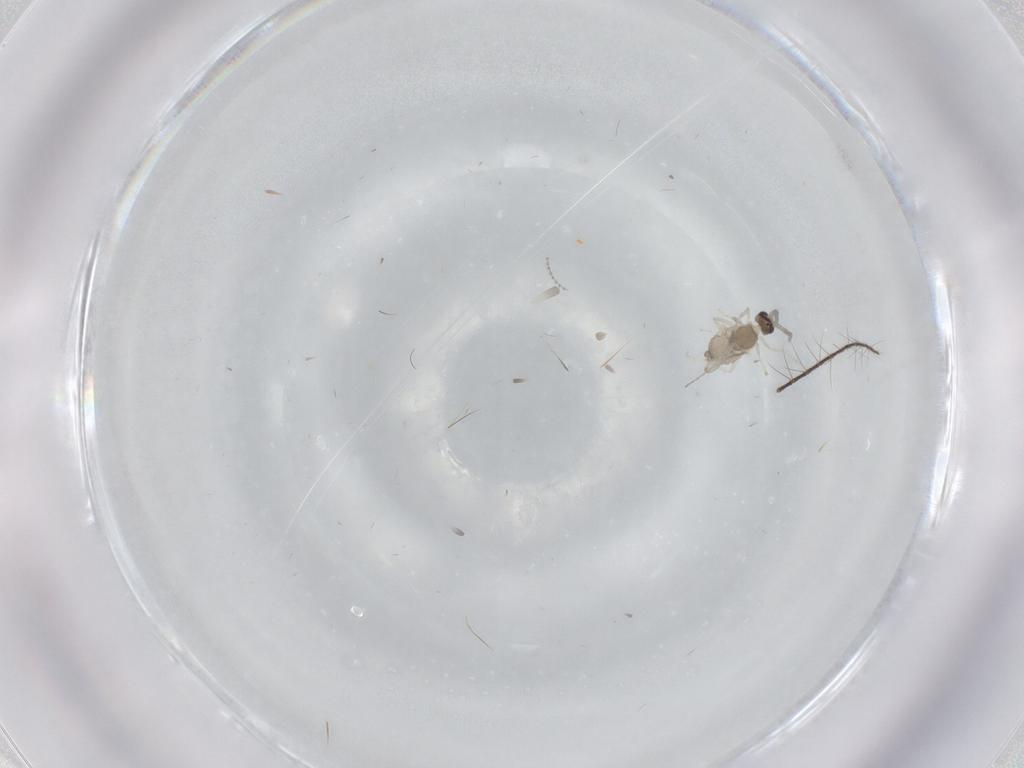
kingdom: Animalia
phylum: Arthropoda
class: Insecta
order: Diptera
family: Cecidomyiidae
